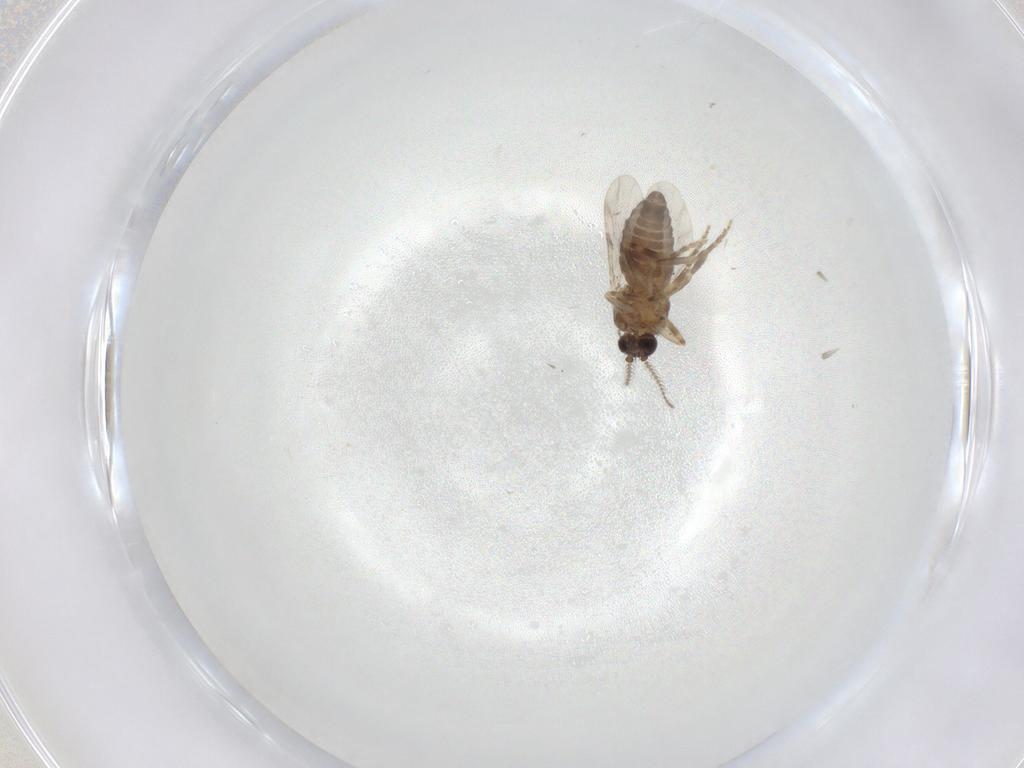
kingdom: Animalia
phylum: Arthropoda
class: Insecta
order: Diptera
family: Ceratopogonidae
